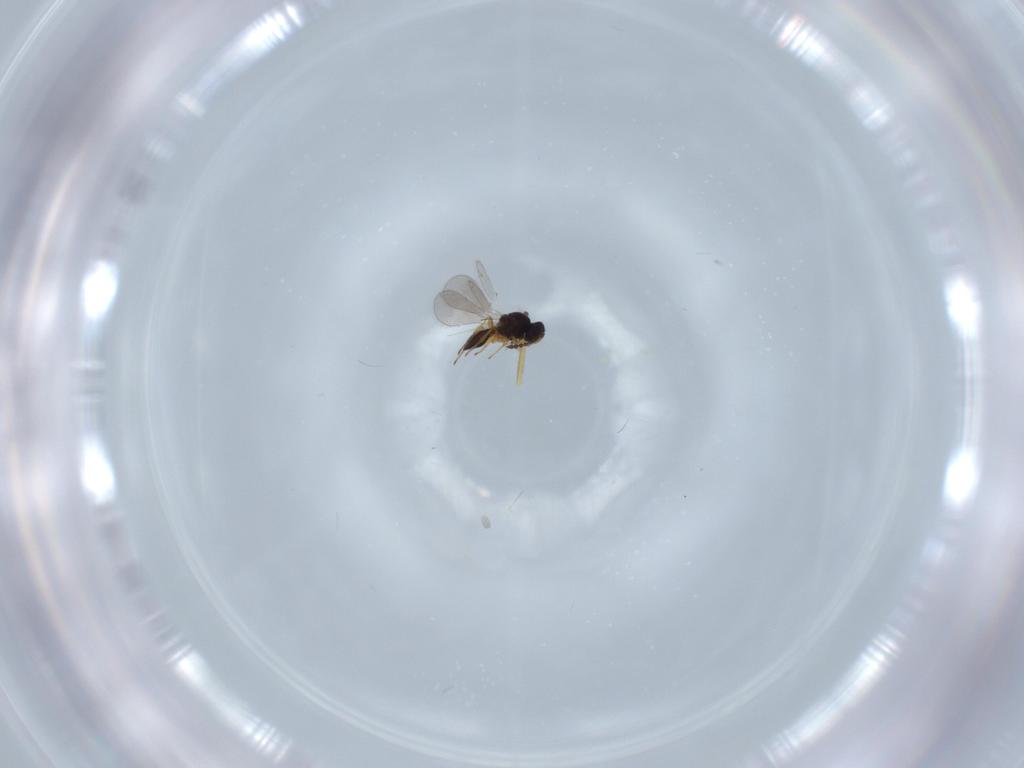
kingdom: Animalia
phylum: Arthropoda
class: Insecta
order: Hymenoptera
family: Platygastridae
